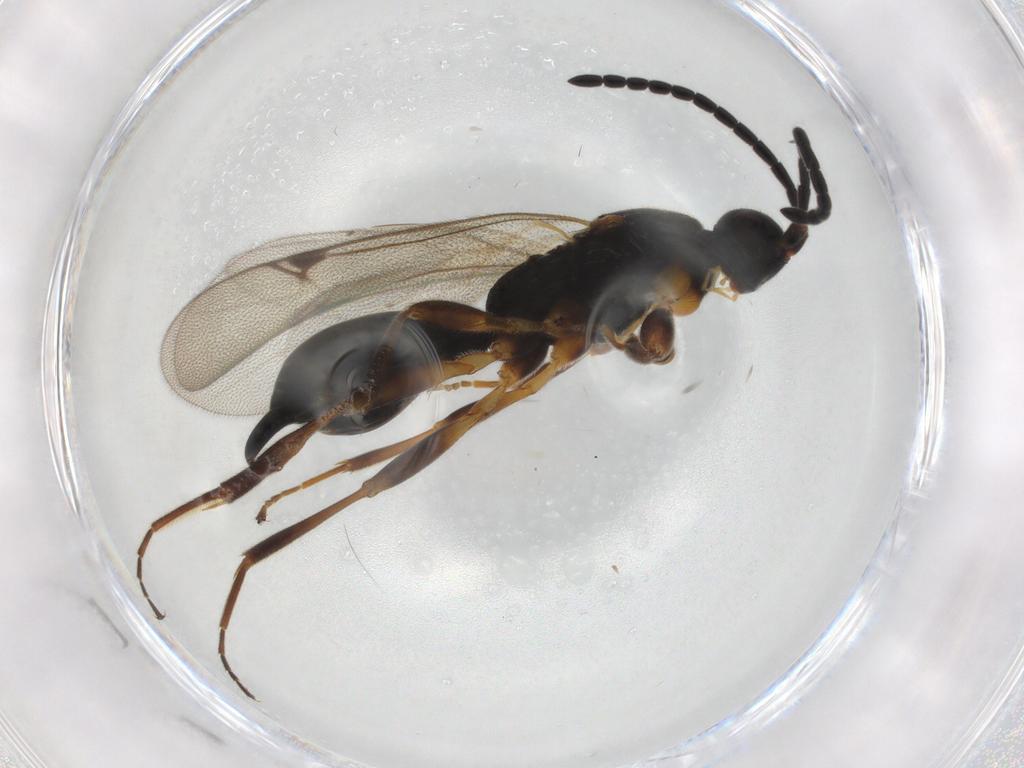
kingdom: Animalia
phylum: Arthropoda
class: Insecta
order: Hymenoptera
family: Proctotrupidae
